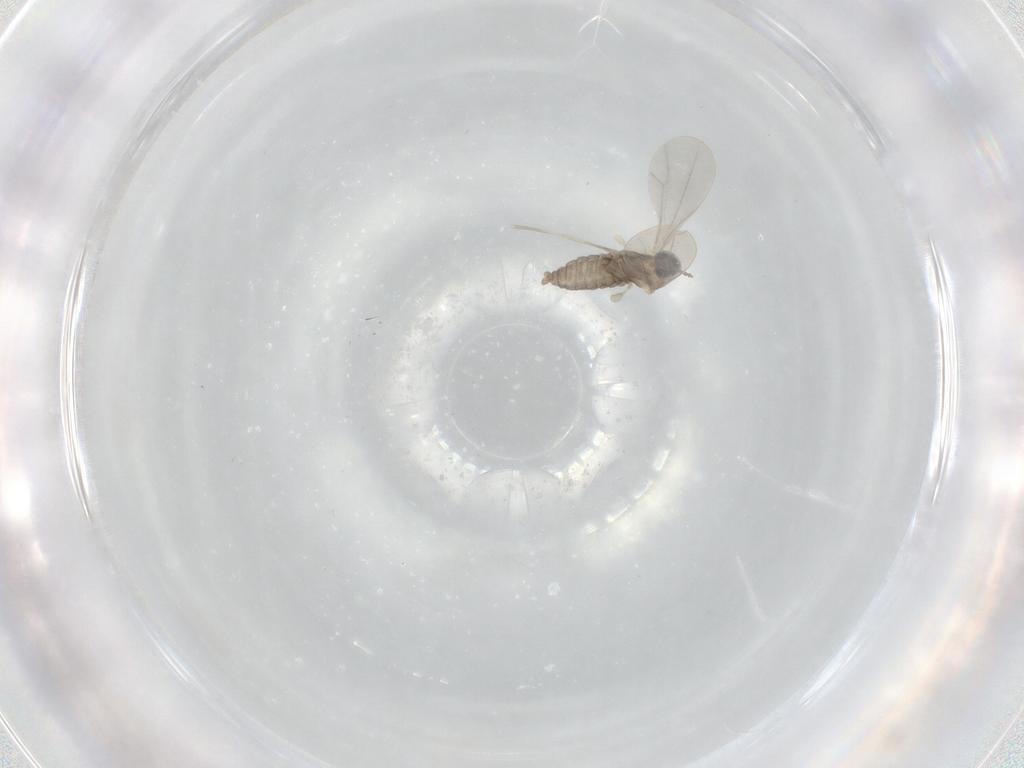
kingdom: Animalia
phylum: Arthropoda
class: Insecta
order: Diptera
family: Cecidomyiidae
